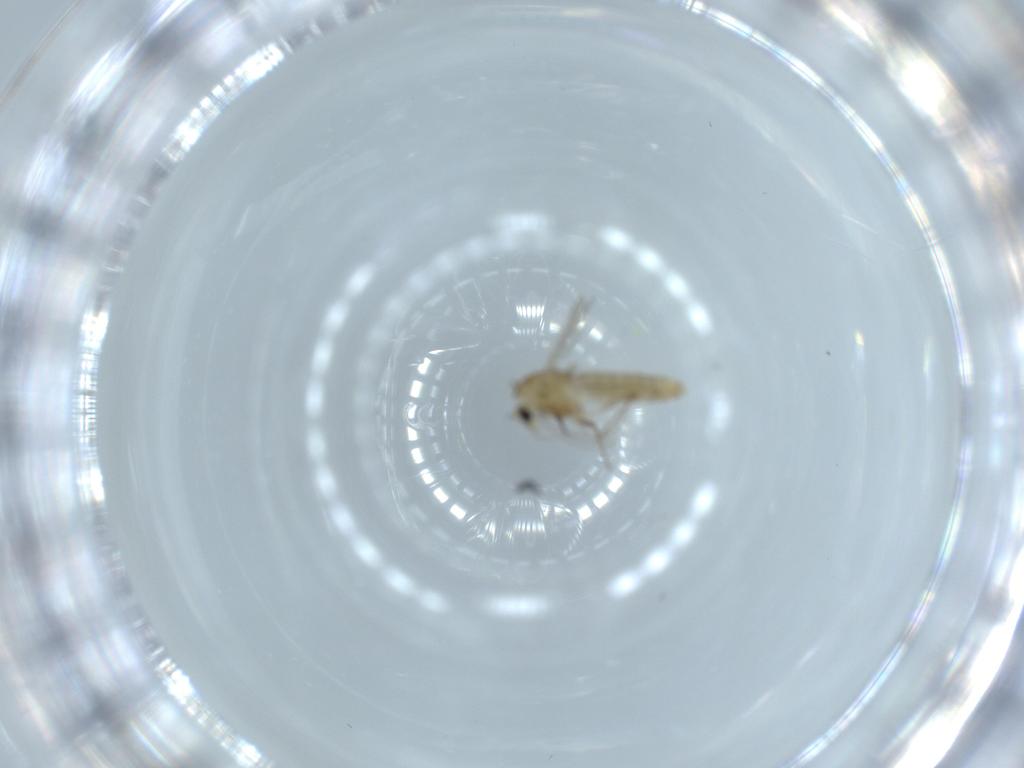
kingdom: Animalia
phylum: Arthropoda
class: Insecta
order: Diptera
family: Chironomidae
